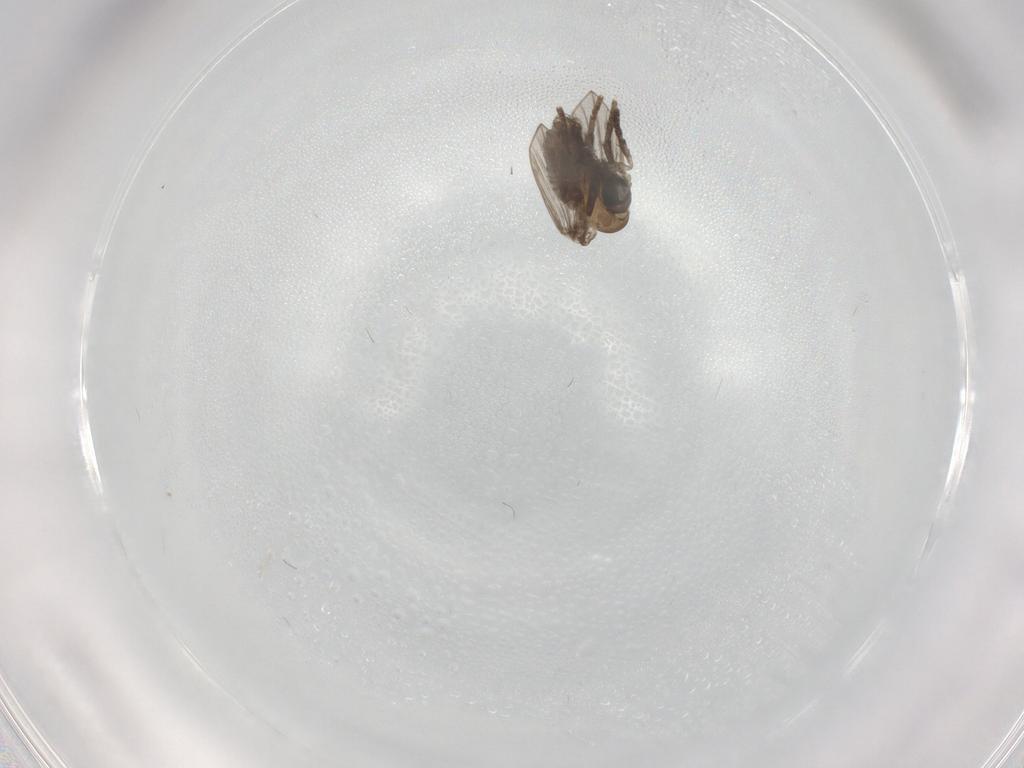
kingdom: Animalia
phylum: Arthropoda
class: Insecta
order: Diptera
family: Psychodidae
